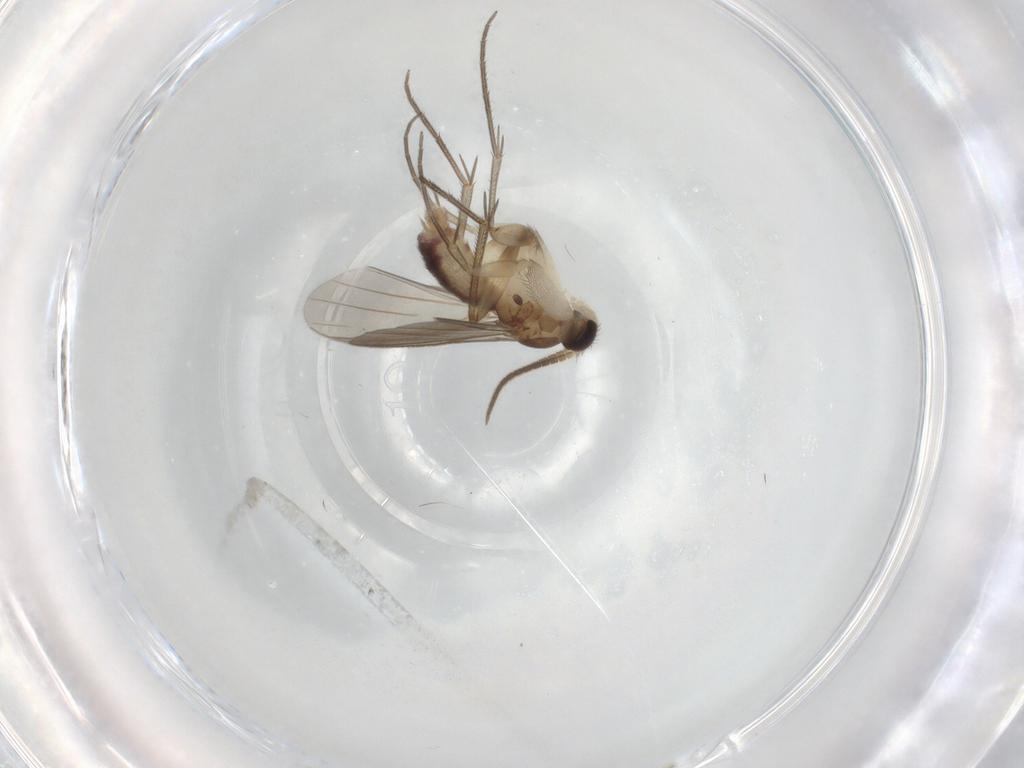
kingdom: Animalia
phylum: Arthropoda
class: Insecta
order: Diptera
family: Mycetophilidae
